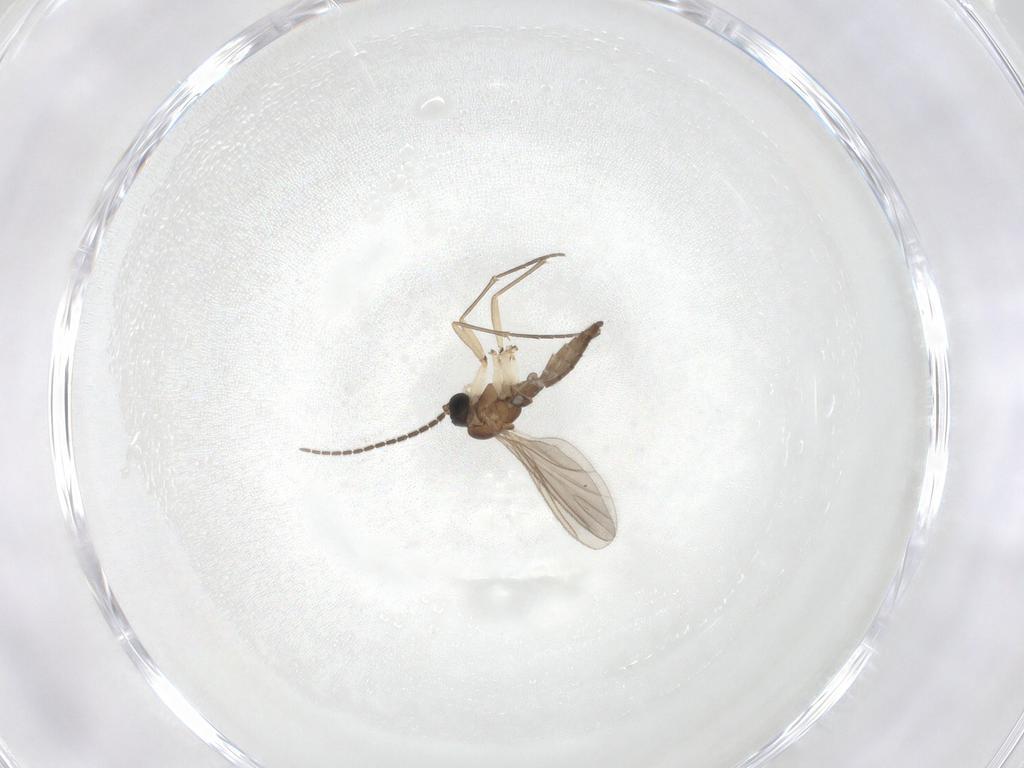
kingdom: Animalia
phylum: Arthropoda
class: Insecta
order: Diptera
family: Sciaridae
